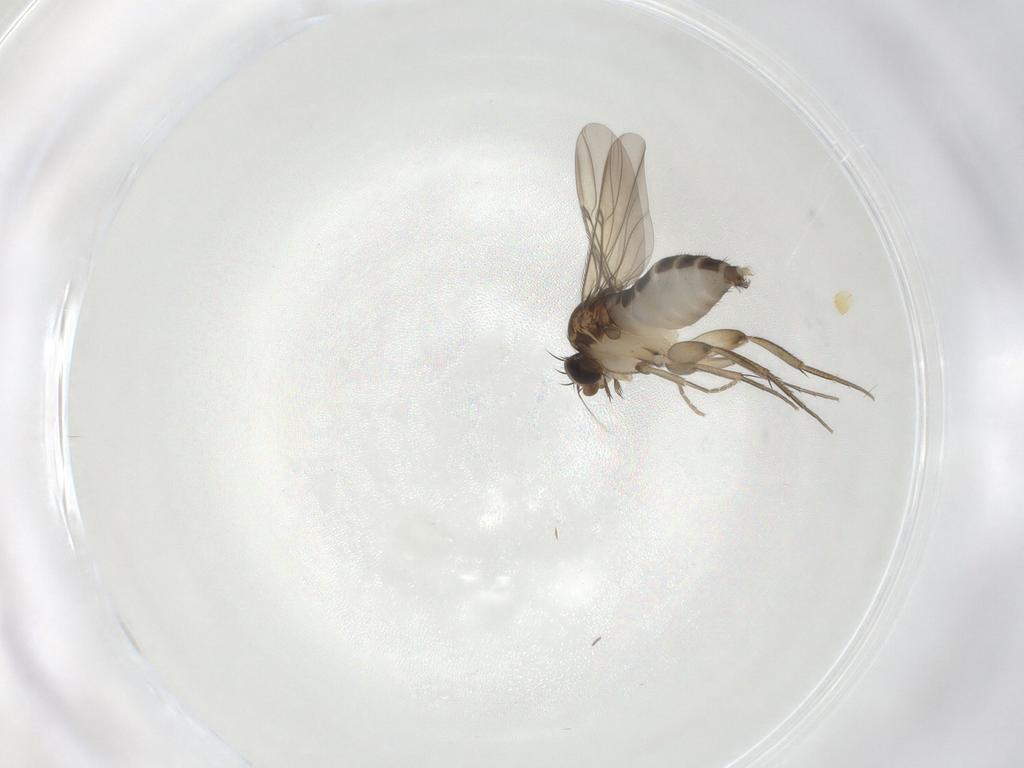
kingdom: Animalia
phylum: Arthropoda
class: Insecta
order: Diptera
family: Phoridae
